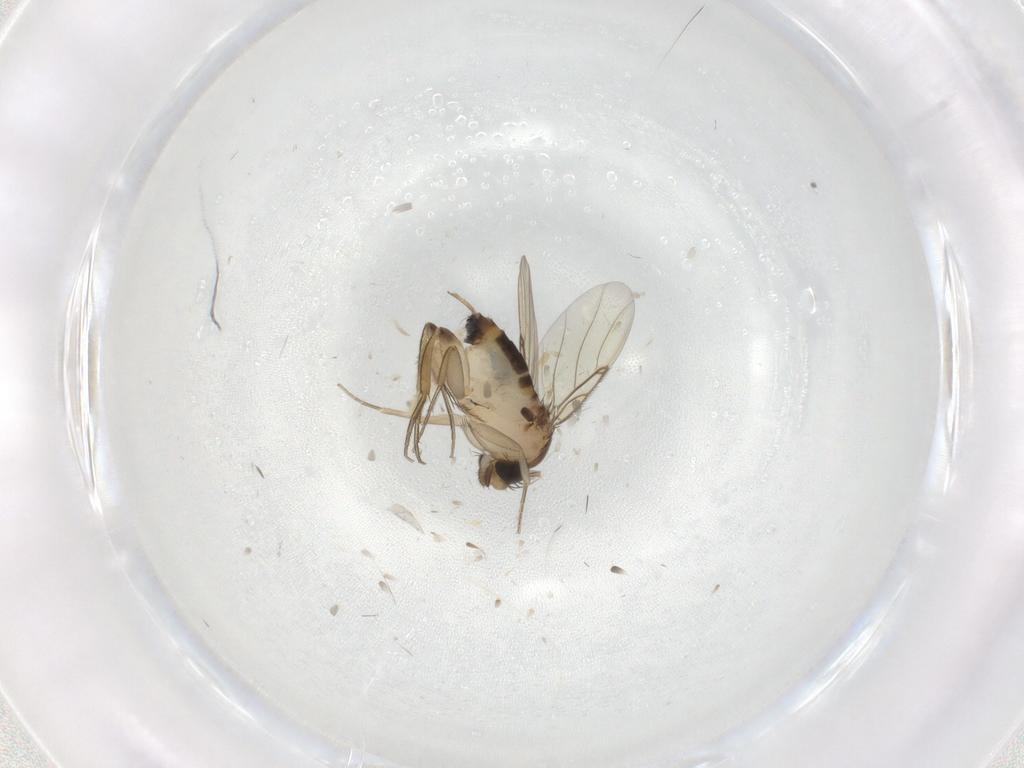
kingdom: Animalia
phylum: Arthropoda
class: Insecta
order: Diptera
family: Phoridae
